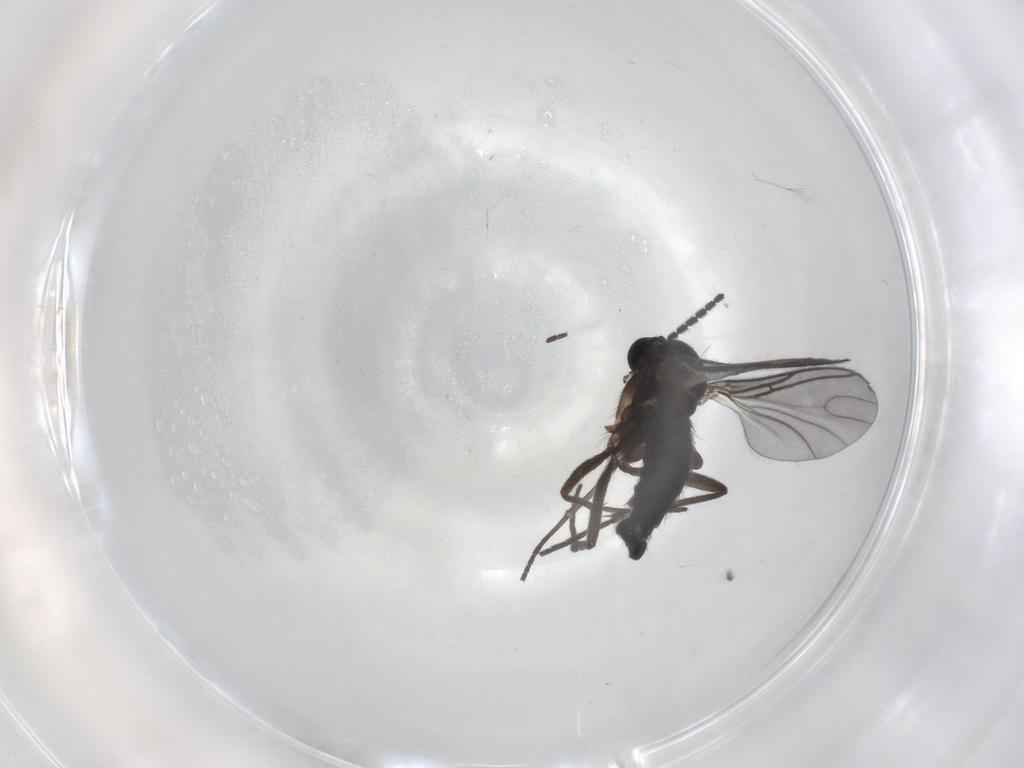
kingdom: Animalia
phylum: Arthropoda
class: Insecta
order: Diptera
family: Sciaridae
